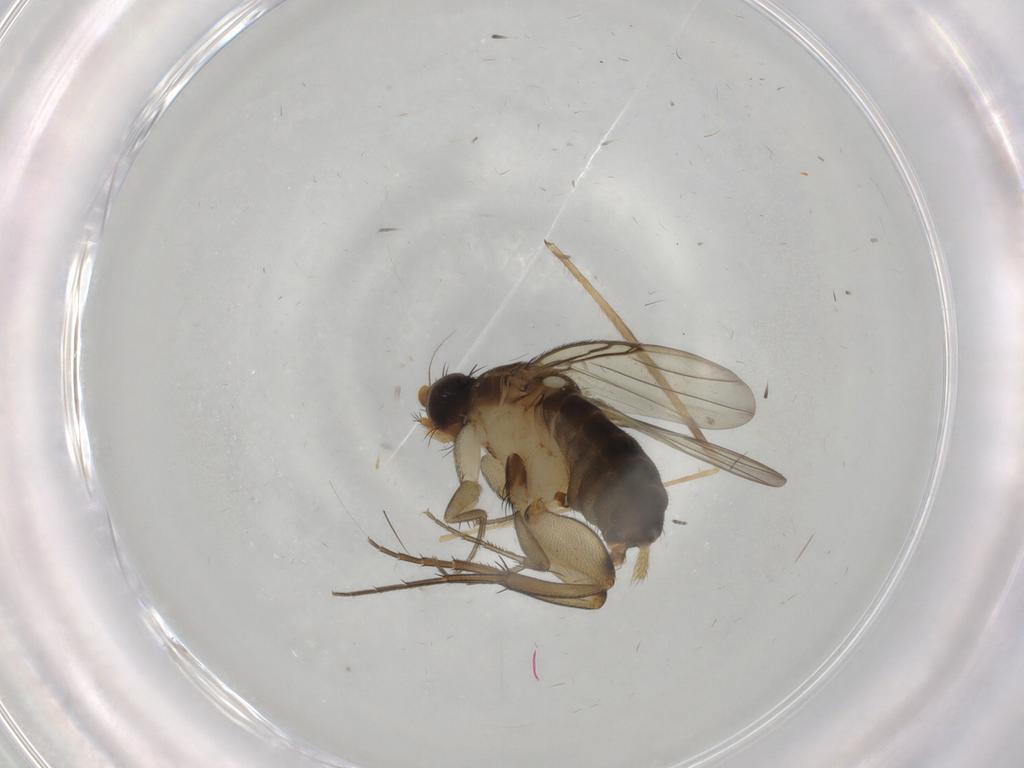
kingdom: Animalia
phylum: Arthropoda
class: Insecta
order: Diptera
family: Phoridae
